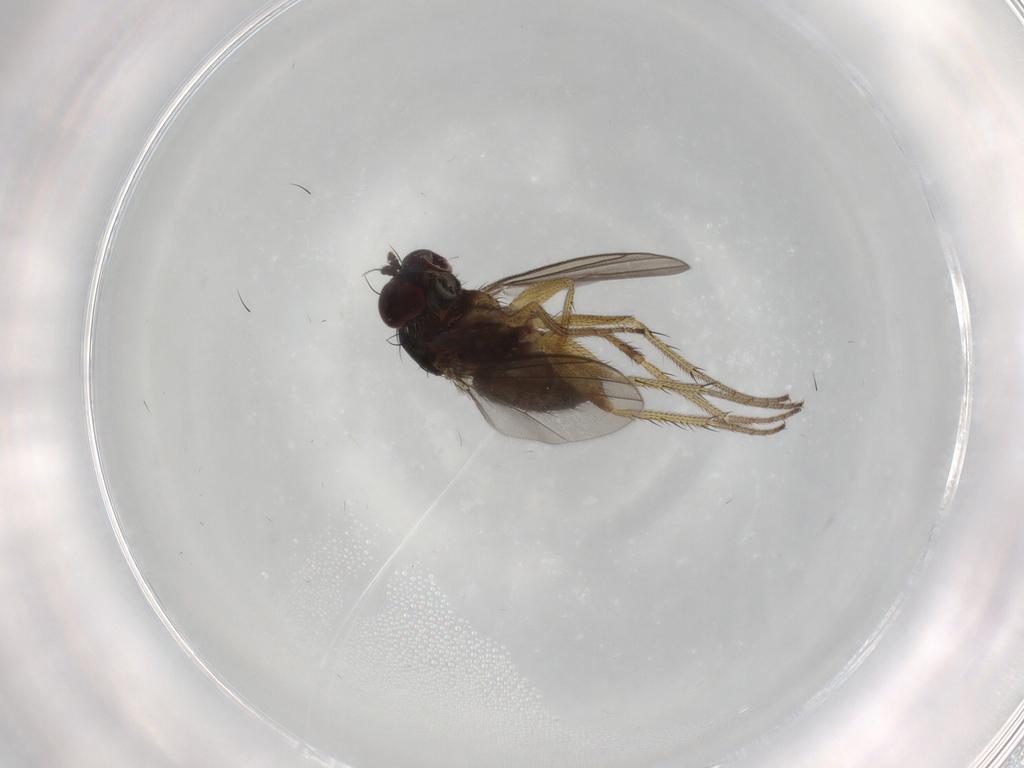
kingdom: Animalia
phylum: Arthropoda
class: Insecta
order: Diptera
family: Dolichopodidae
